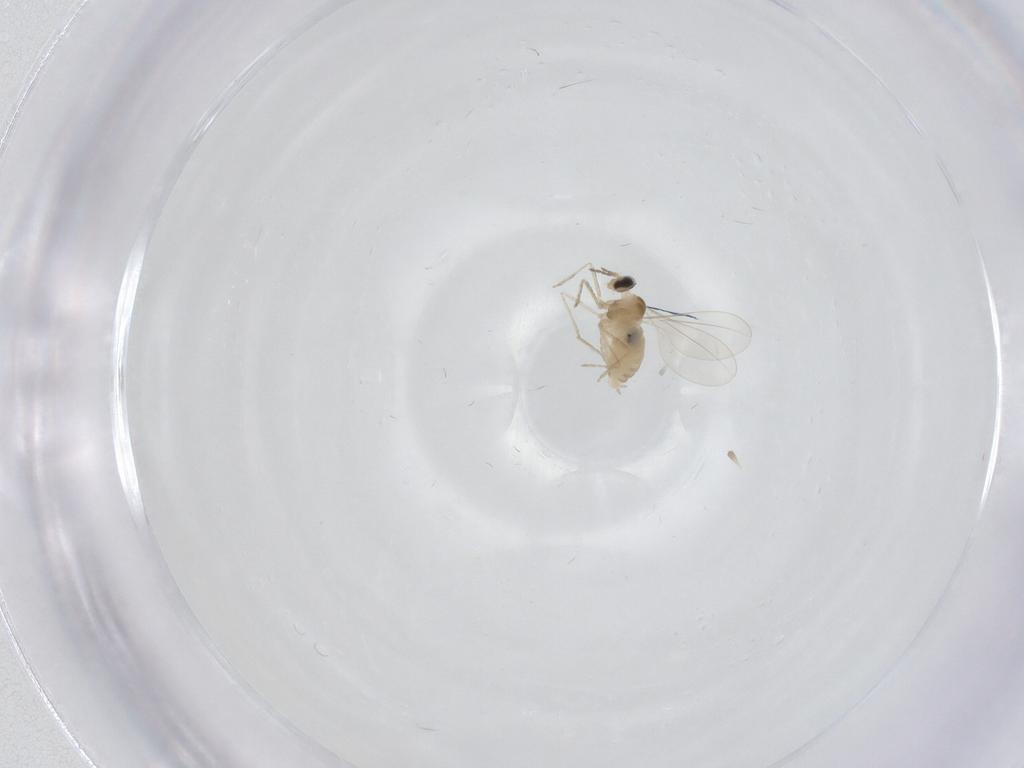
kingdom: Animalia
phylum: Arthropoda
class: Insecta
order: Diptera
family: Cecidomyiidae
